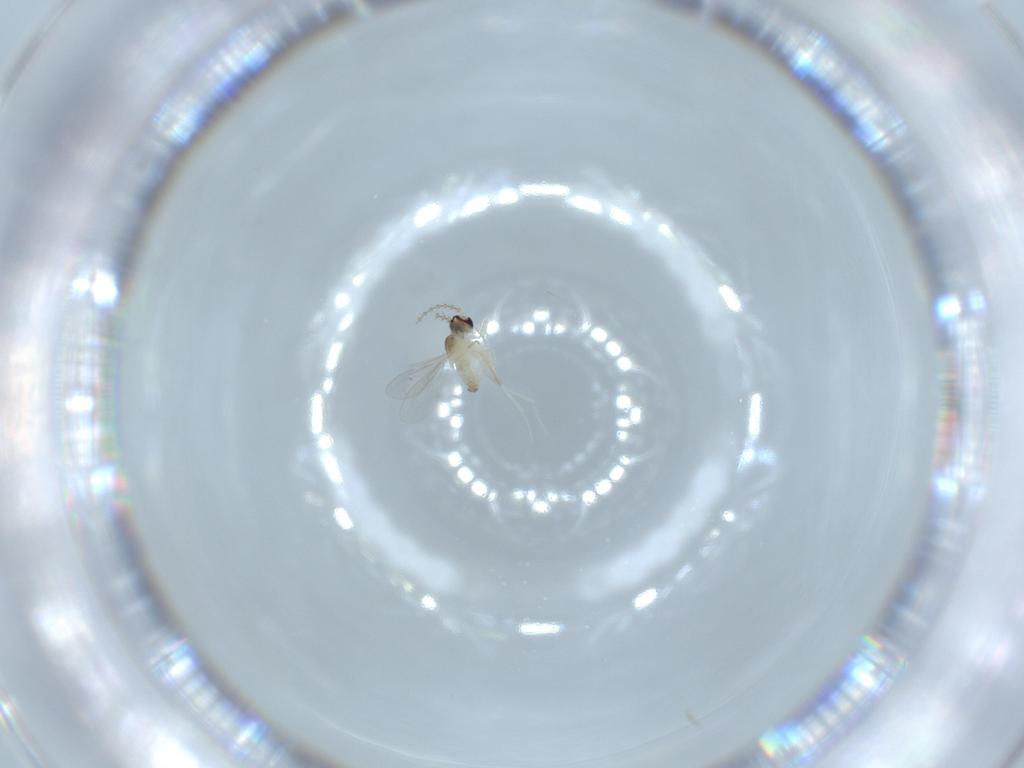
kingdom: Animalia
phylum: Arthropoda
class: Insecta
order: Diptera
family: Cecidomyiidae
